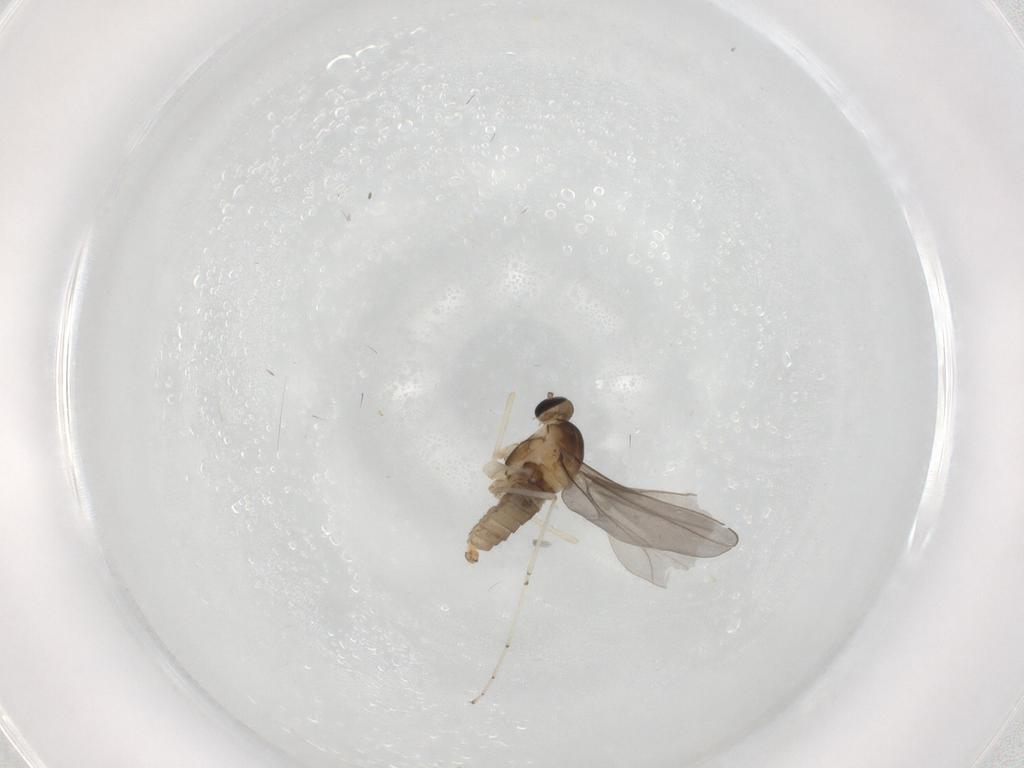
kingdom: Animalia
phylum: Arthropoda
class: Insecta
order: Diptera
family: Cecidomyiidae
